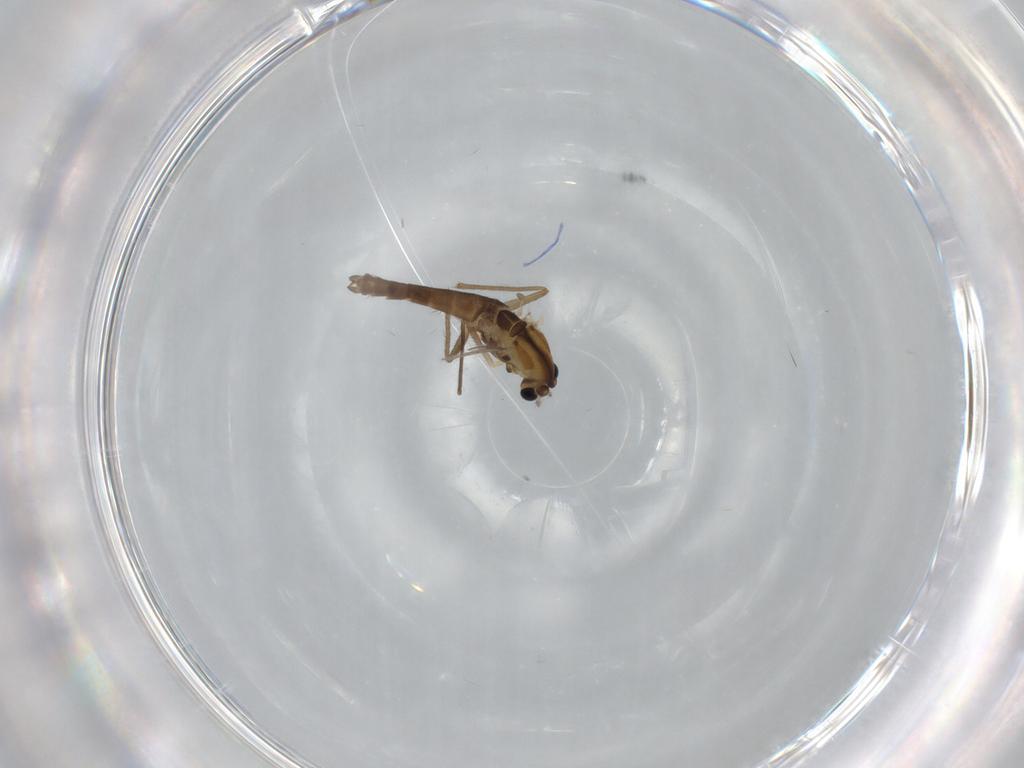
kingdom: Animalia
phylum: Arthropoda
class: Insecta
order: Diptera
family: Chironomidae
